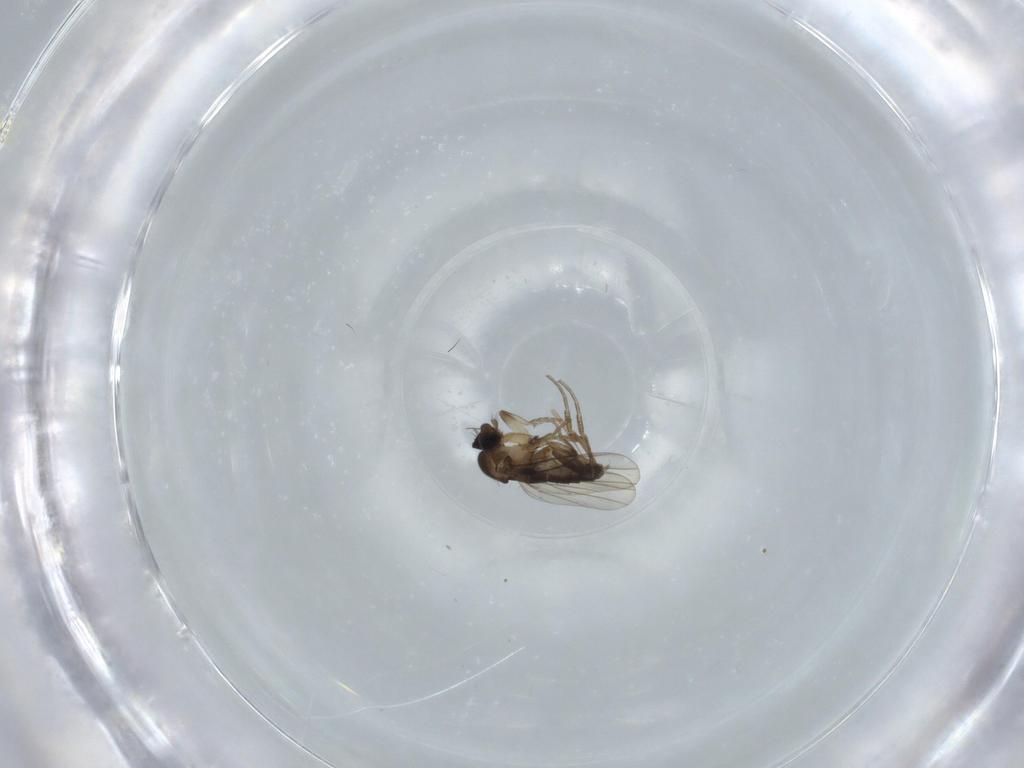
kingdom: Animalia
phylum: Arthropoda
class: Insecta
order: Diptera
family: Phoridae
